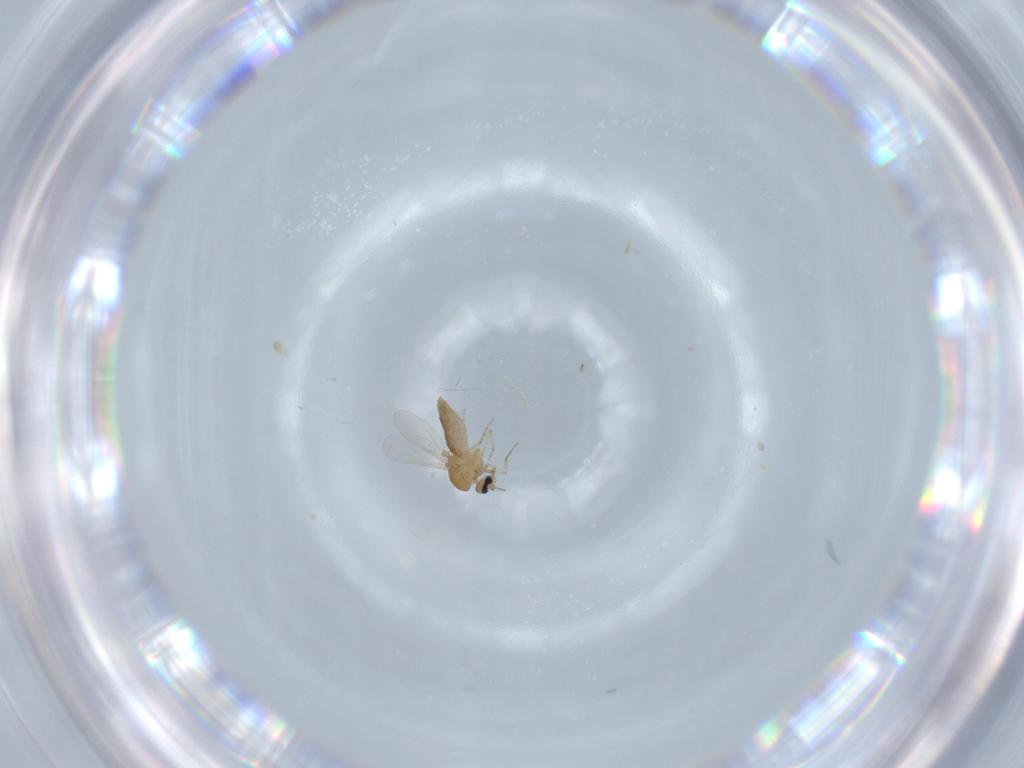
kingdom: Animalia
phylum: Arthropoda
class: Insecta
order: Diptera
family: Ceratopogonidae
